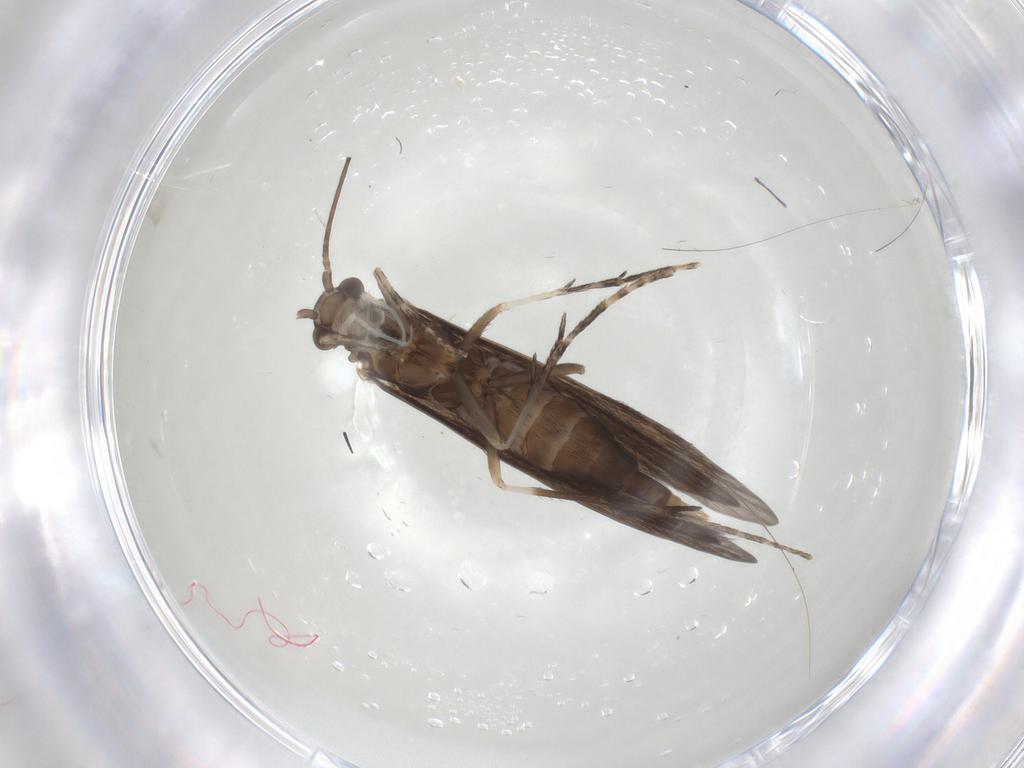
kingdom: Animalia
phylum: Arthropoda
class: Insecta
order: Trichoptera
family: Xiphocentronidae
